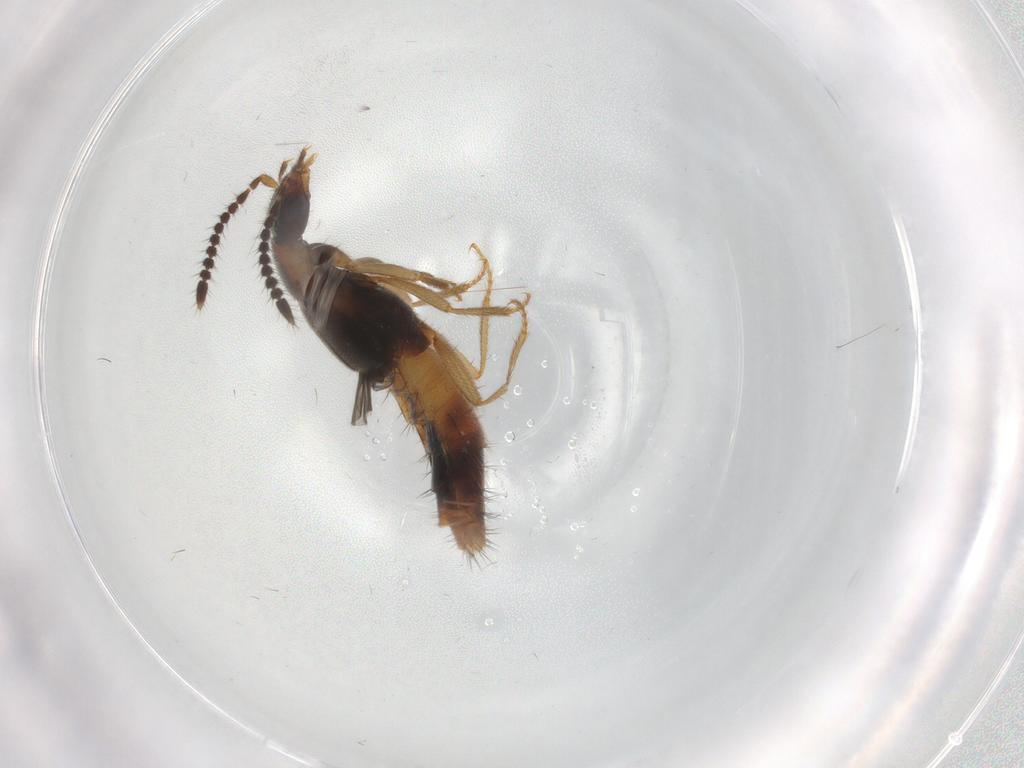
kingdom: Animalia
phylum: Arthropoda
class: Insecta
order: Coleoptera
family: Staphylinidae
